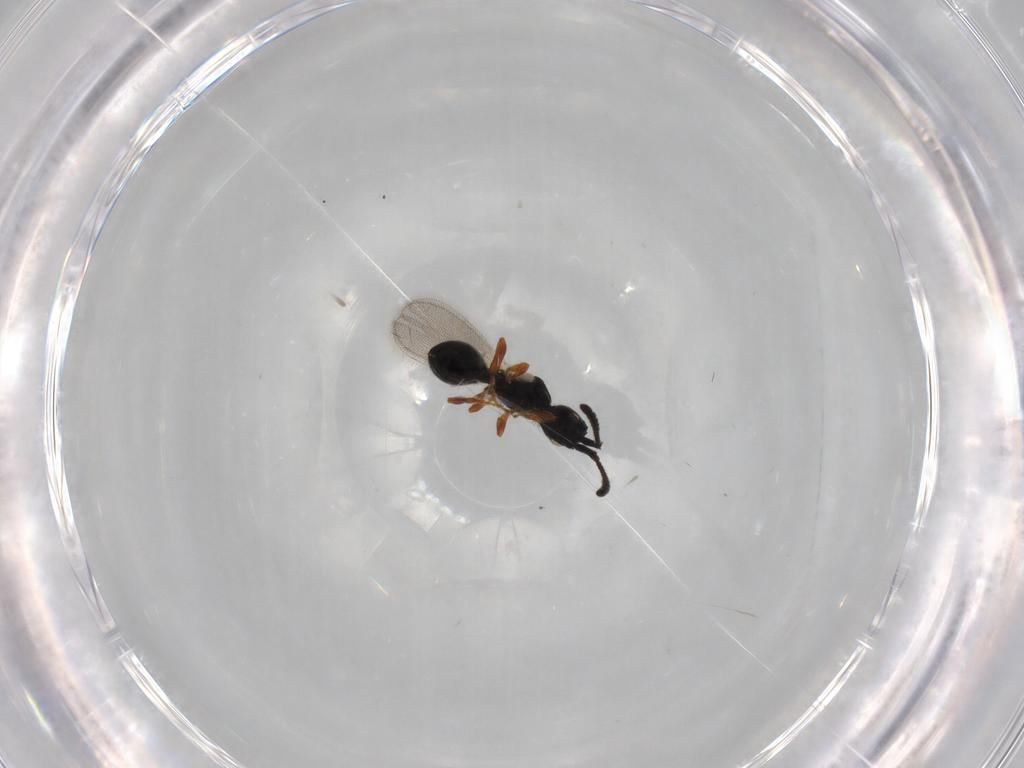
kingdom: Animalia
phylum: Arthropoda
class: Insecta
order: Hymenoptera
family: Diapriidae
